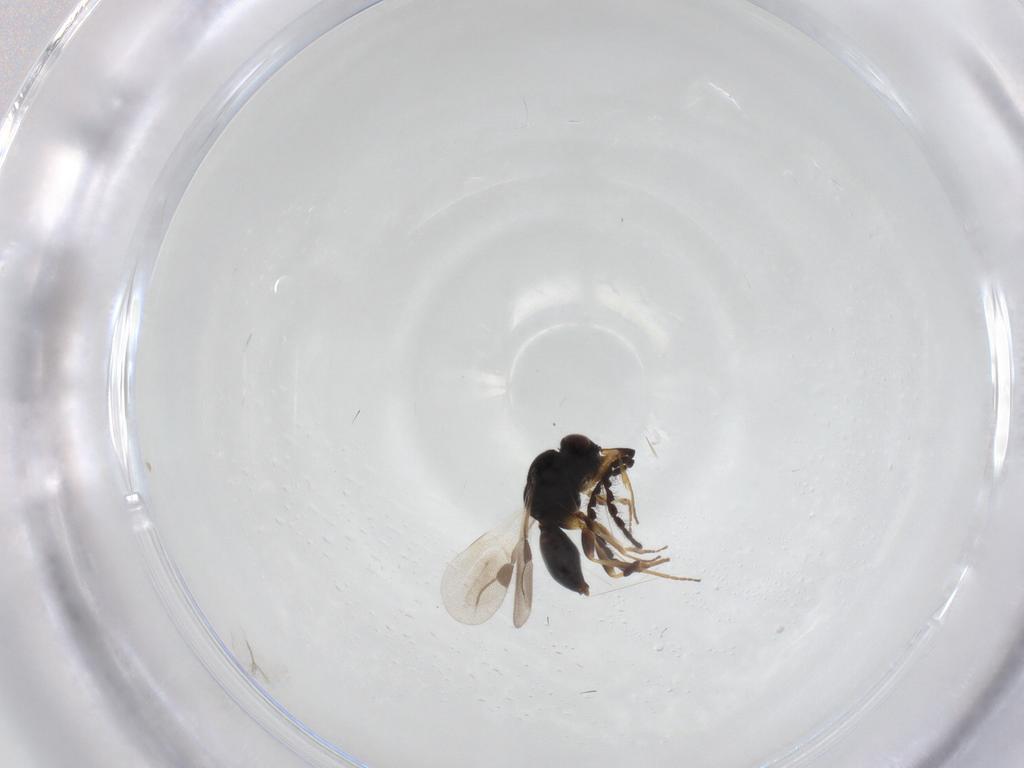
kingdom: Animalia
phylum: Arthropoda
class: Insecta
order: Hymenoptera
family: Megaspilidae
